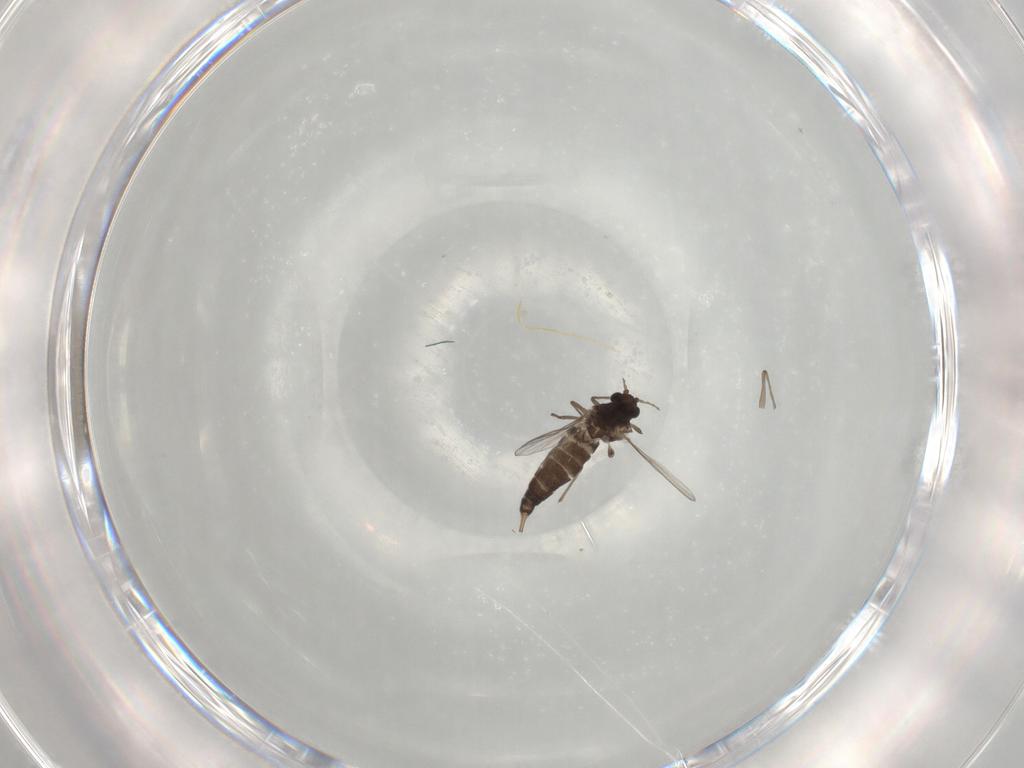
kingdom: Animalia
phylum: Arthropoda
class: Insecta
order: Diptera
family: Chironomidae
